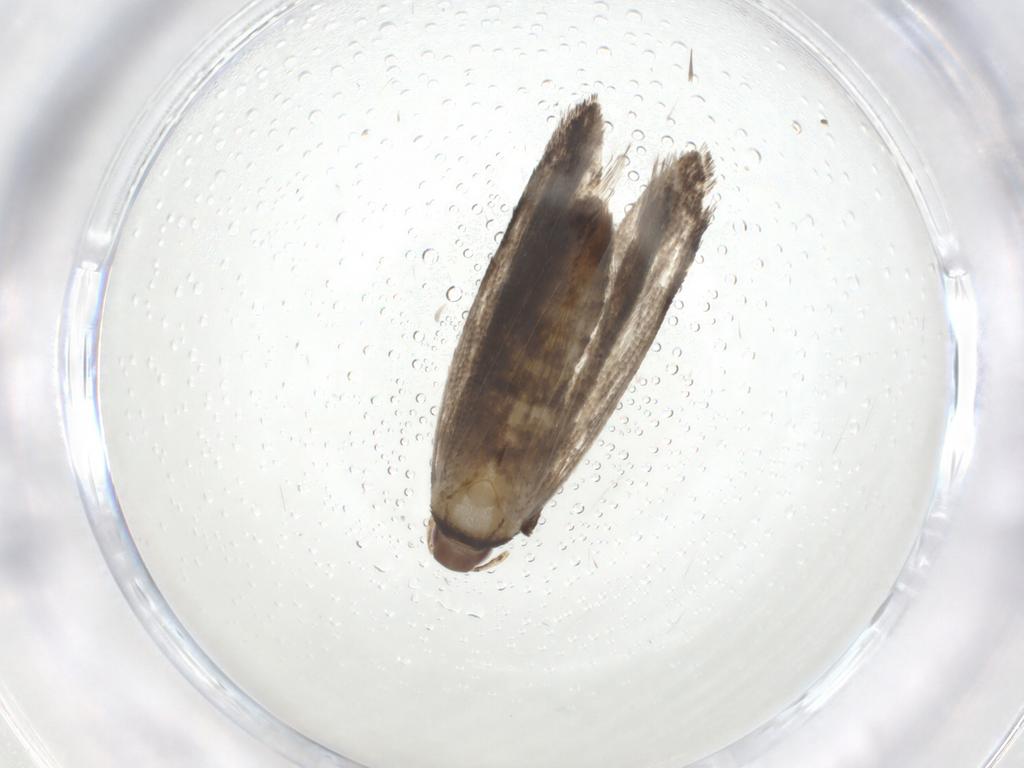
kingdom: Animalia
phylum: Arthropoda
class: Insecta
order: Lepidoptera
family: Gelechiidae
